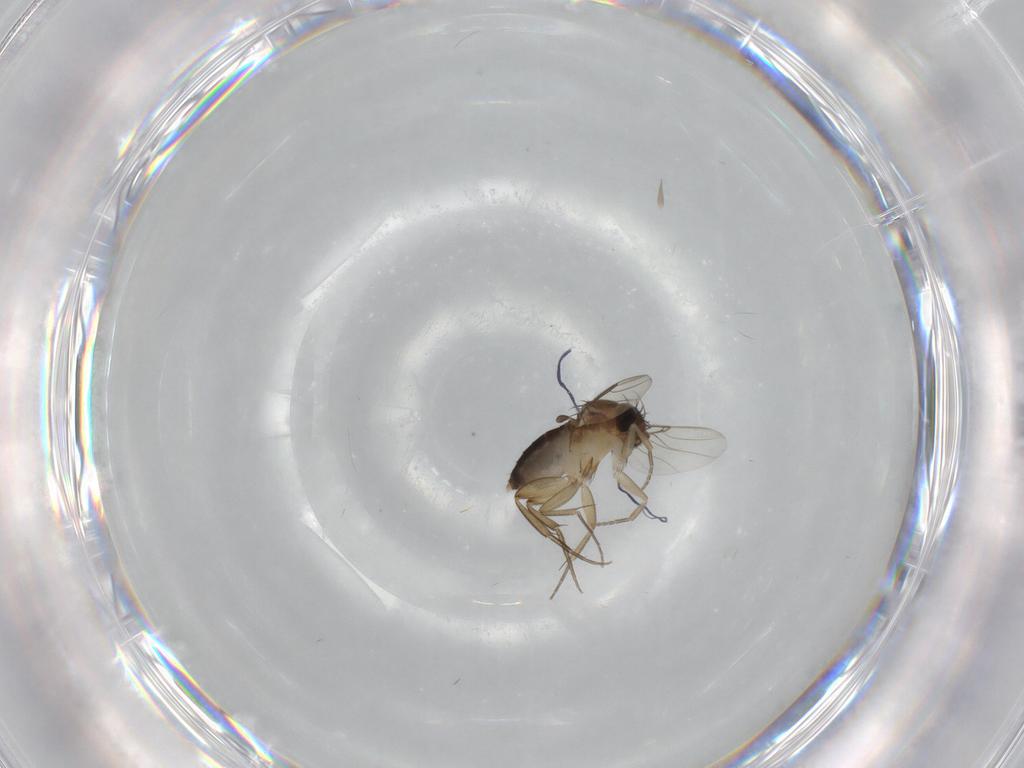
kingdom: Animalia
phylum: Arthropoda
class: Insecta
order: Diptera
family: Phoridae
